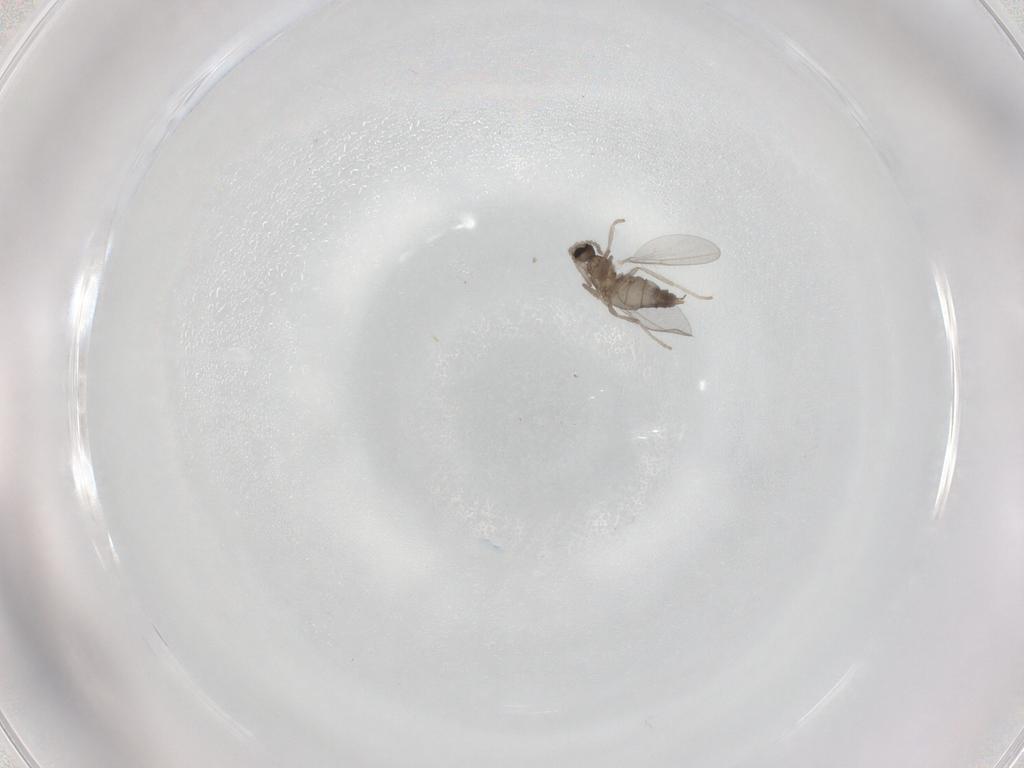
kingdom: Animalia
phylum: Arthropoda
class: Insecta
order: Diptera
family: Cecidomyiidae
